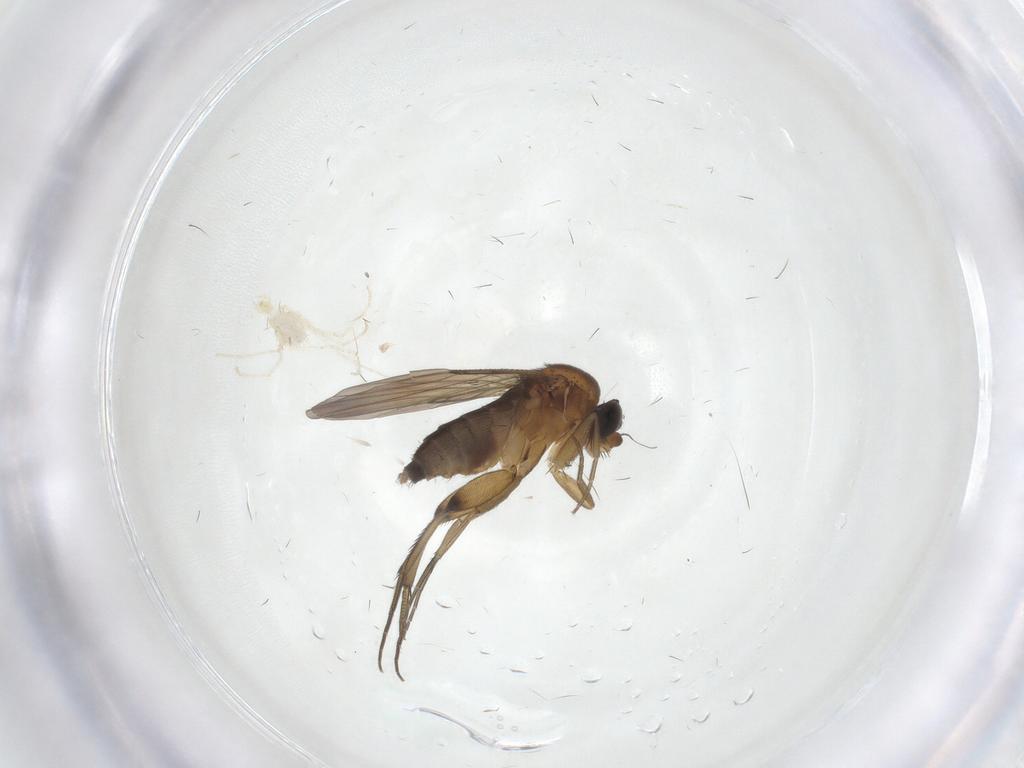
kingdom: Animalia
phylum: Arthropoda
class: Insecta
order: Diptera
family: Phoridae
